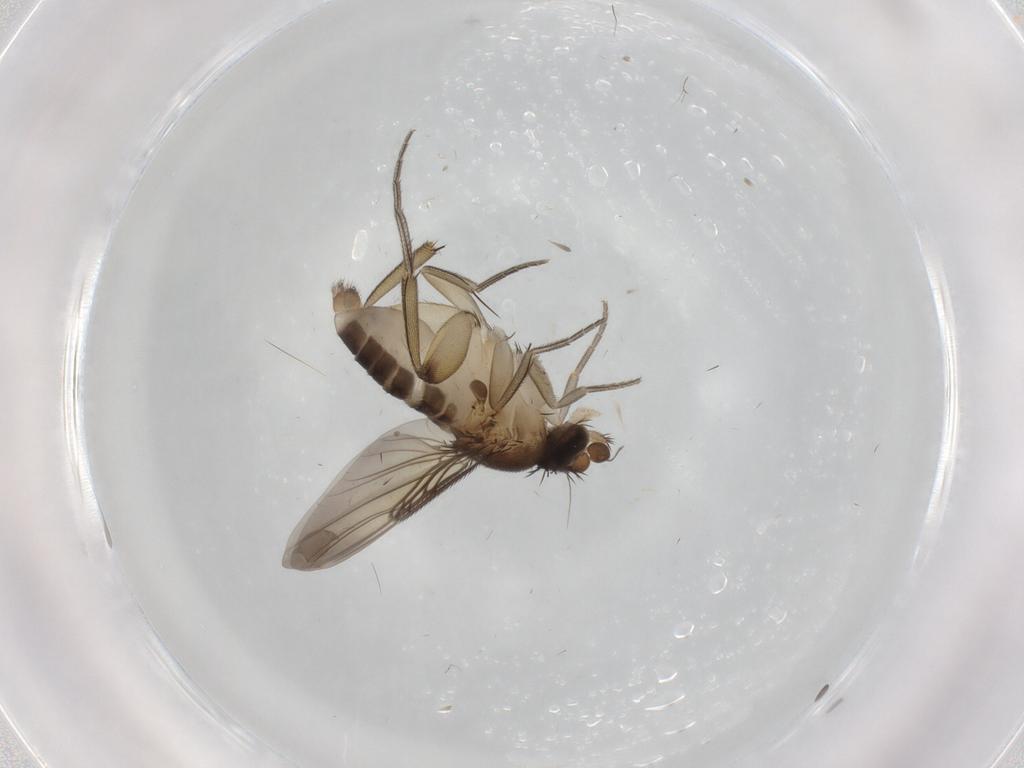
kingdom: Animalia
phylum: Arthropoda
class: Insecta
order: Diptera
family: Phoridae
